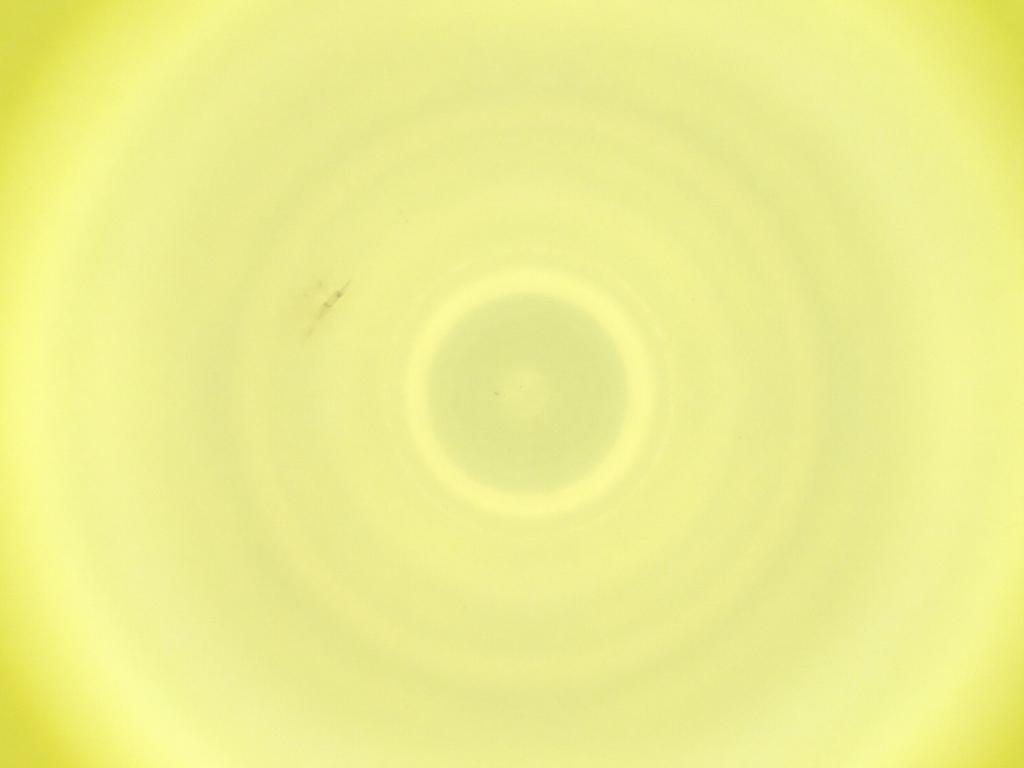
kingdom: Animalia
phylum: Arthropoda
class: Insecta
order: Diptera
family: Cecidomyiidae
